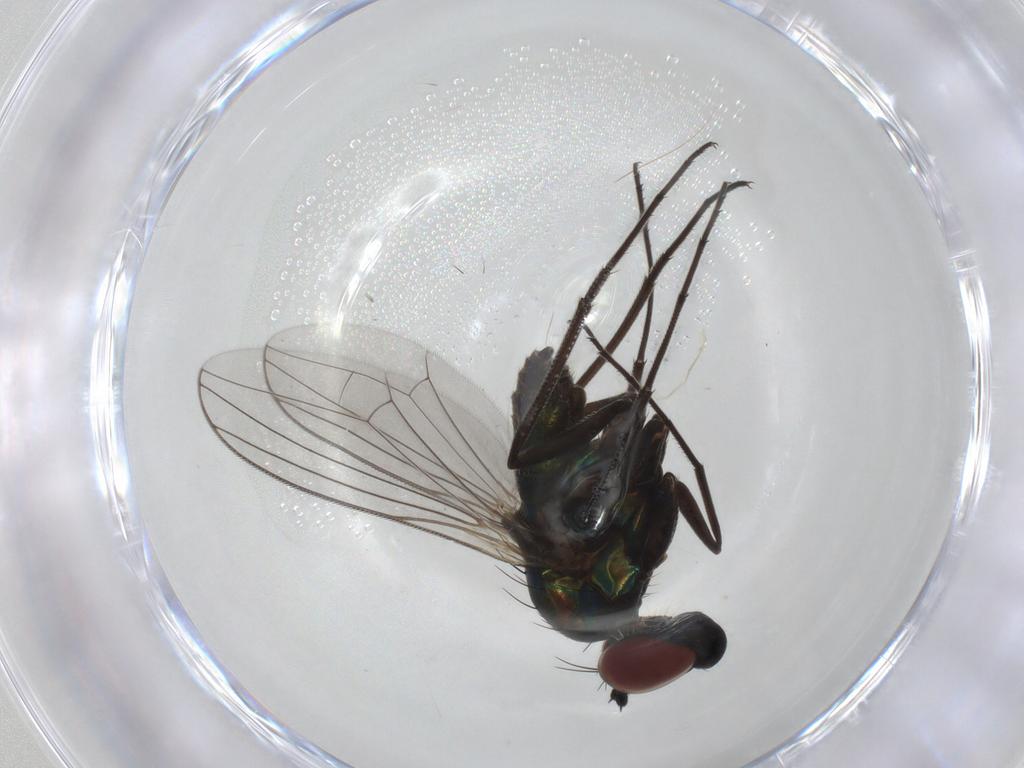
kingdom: Animalia
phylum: Arthropoda
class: Insecta
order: Diptera
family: Dolichopodidae
